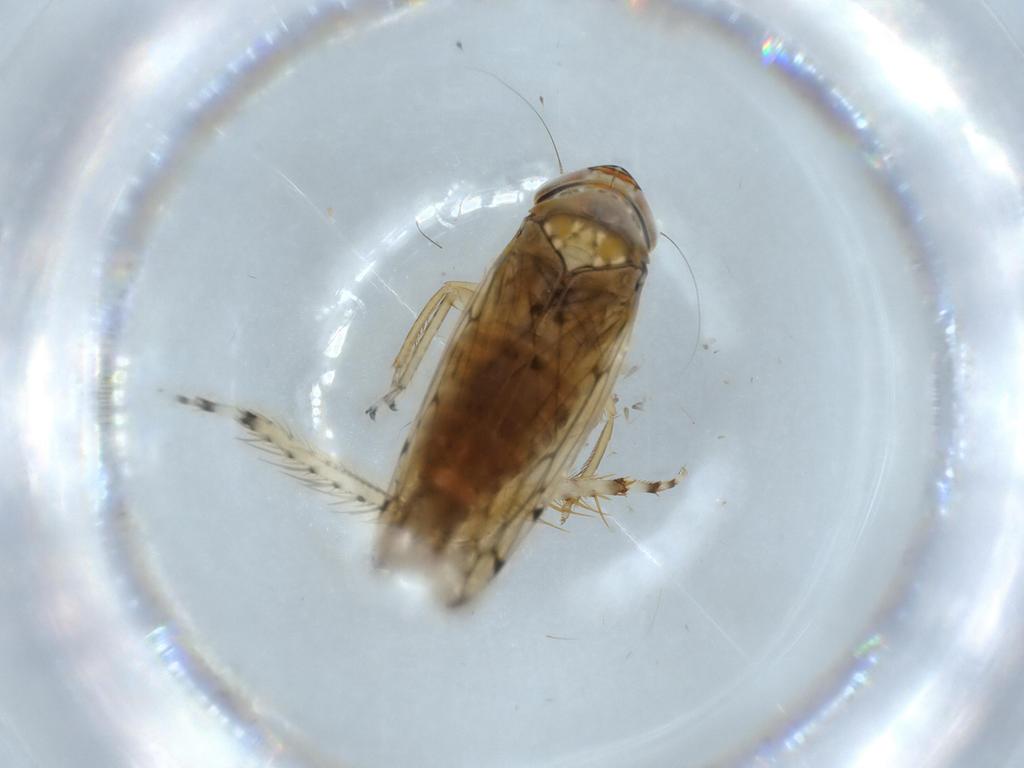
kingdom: Animalia
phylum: Arthropoda
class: Insecta
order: Hemiptera
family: Cicadellidae
